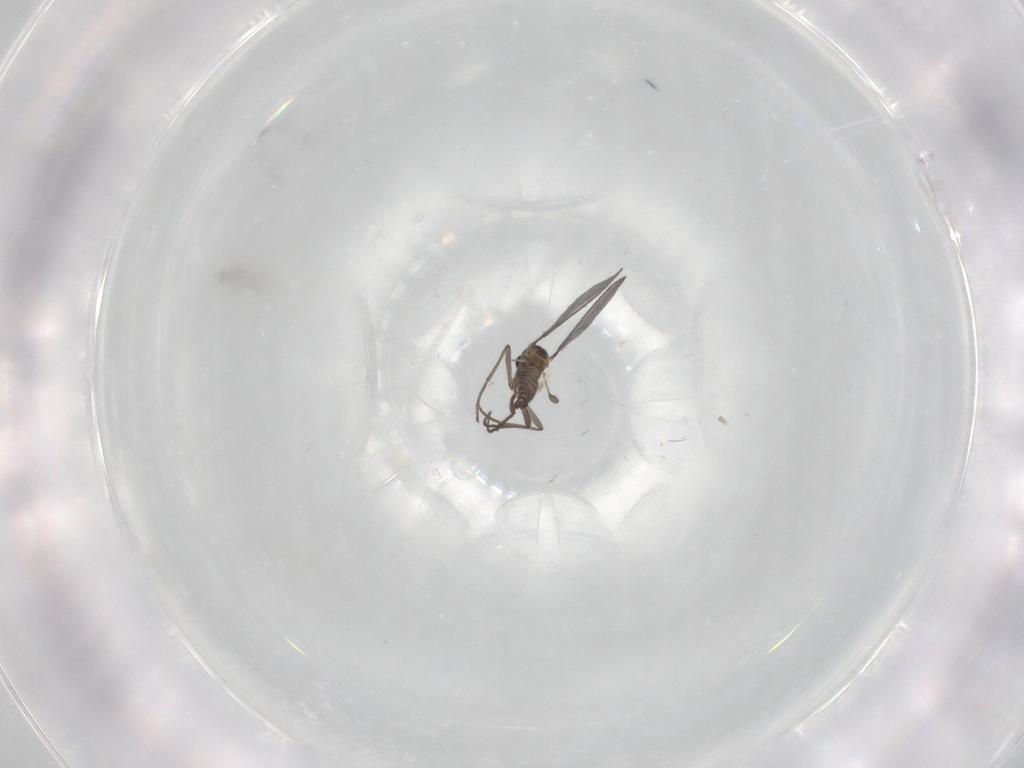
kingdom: Animalia
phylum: Arthropoda
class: Insecta
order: Diptera
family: Sciaridae
